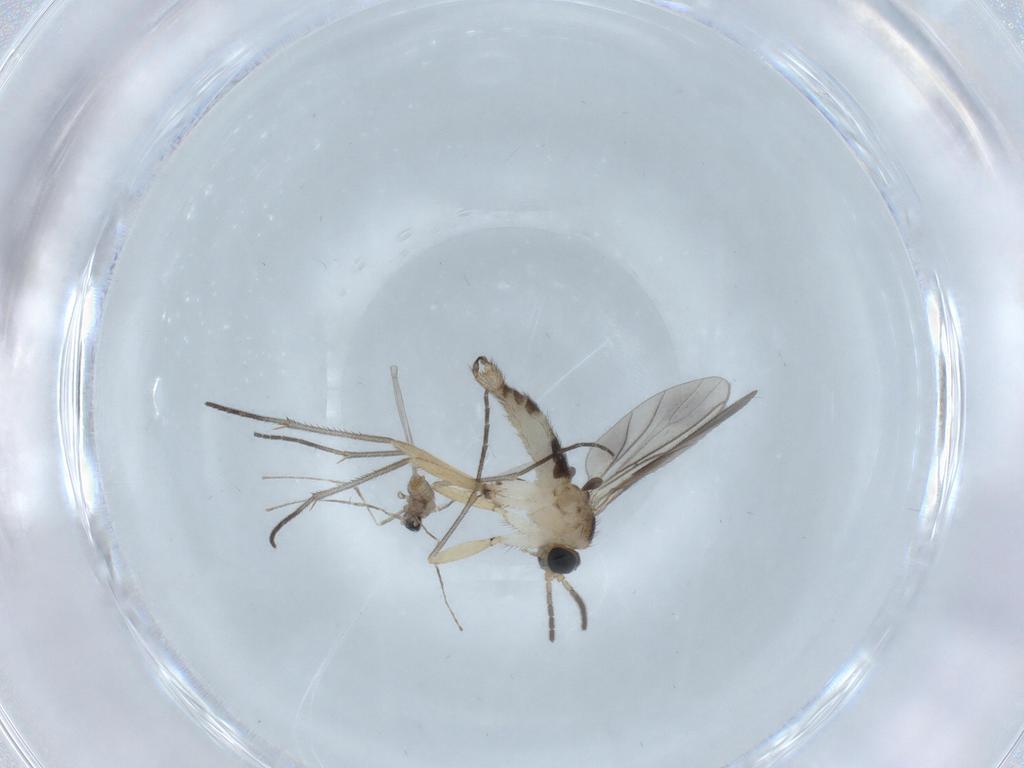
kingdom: Animalia
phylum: Arthropoda
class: Insecta
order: Diptera
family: Sciaridae
